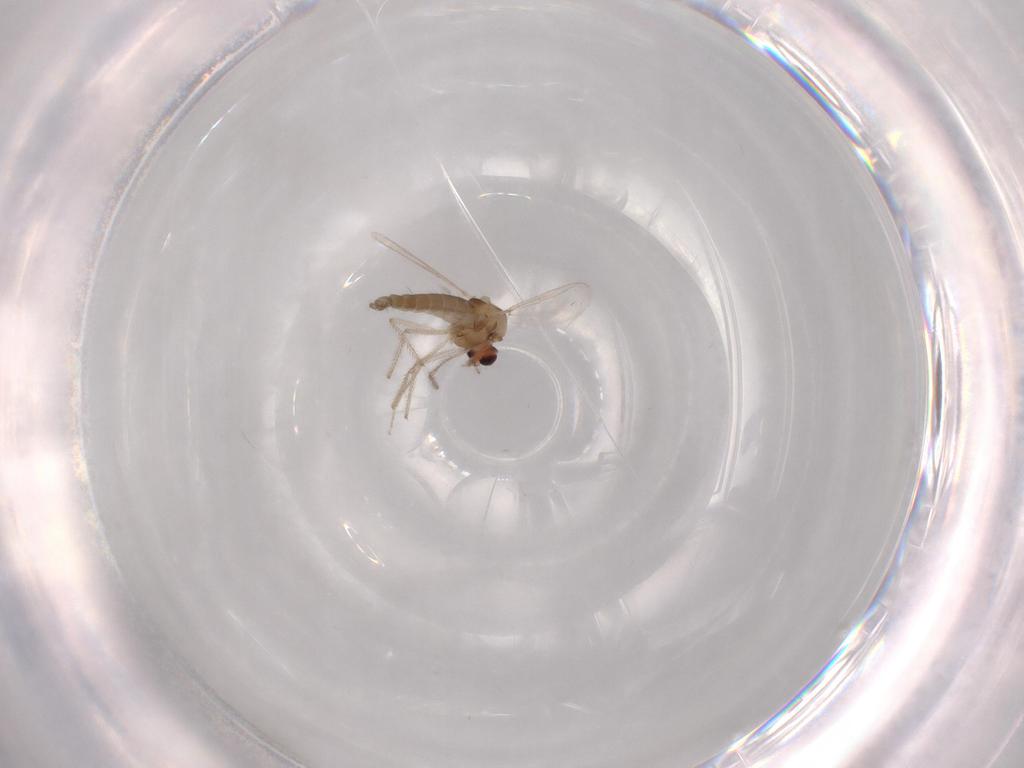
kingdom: Animalia
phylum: Arthropoda
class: Insecta
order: Diptera
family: Chironomidae
